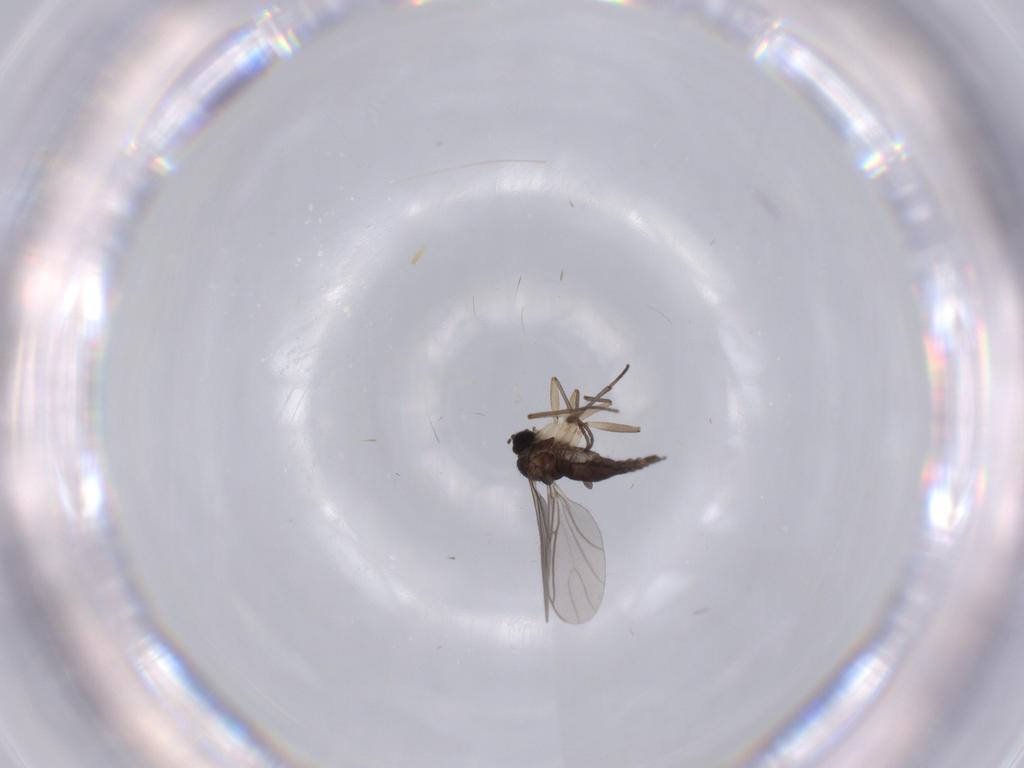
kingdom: Animalia
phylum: Arthropoda
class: Insecta
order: Diptera
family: Sciaridae
